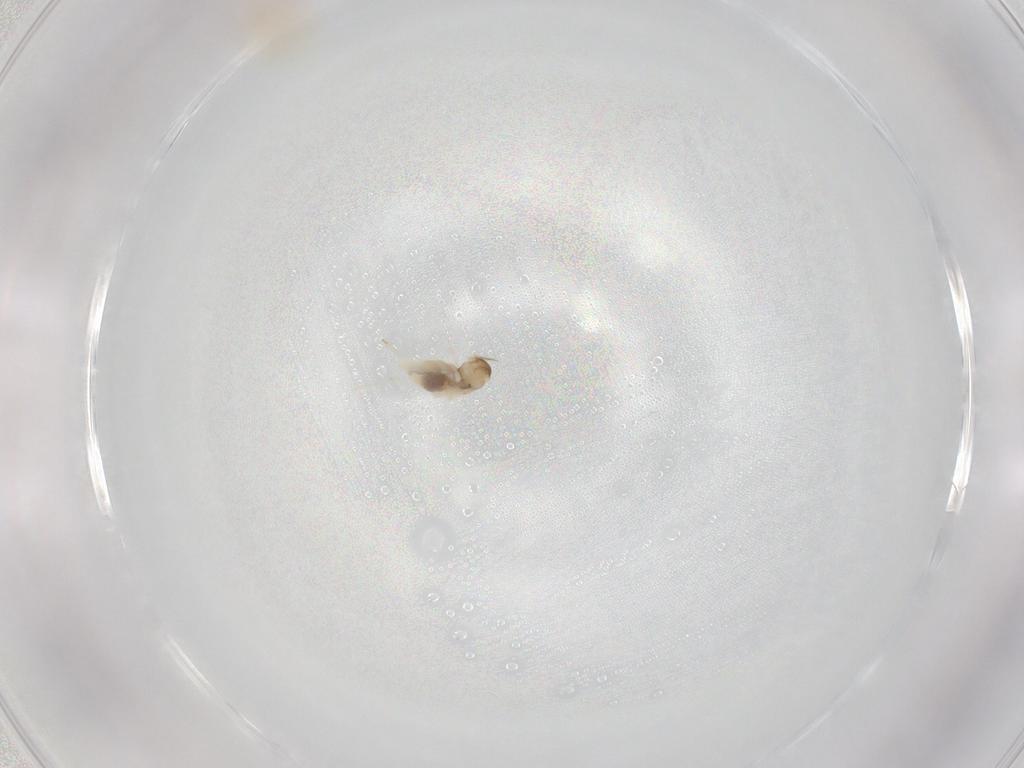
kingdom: Animalia
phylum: Arthropoda
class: Insecta
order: Diptera
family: Cecidomyiidae
